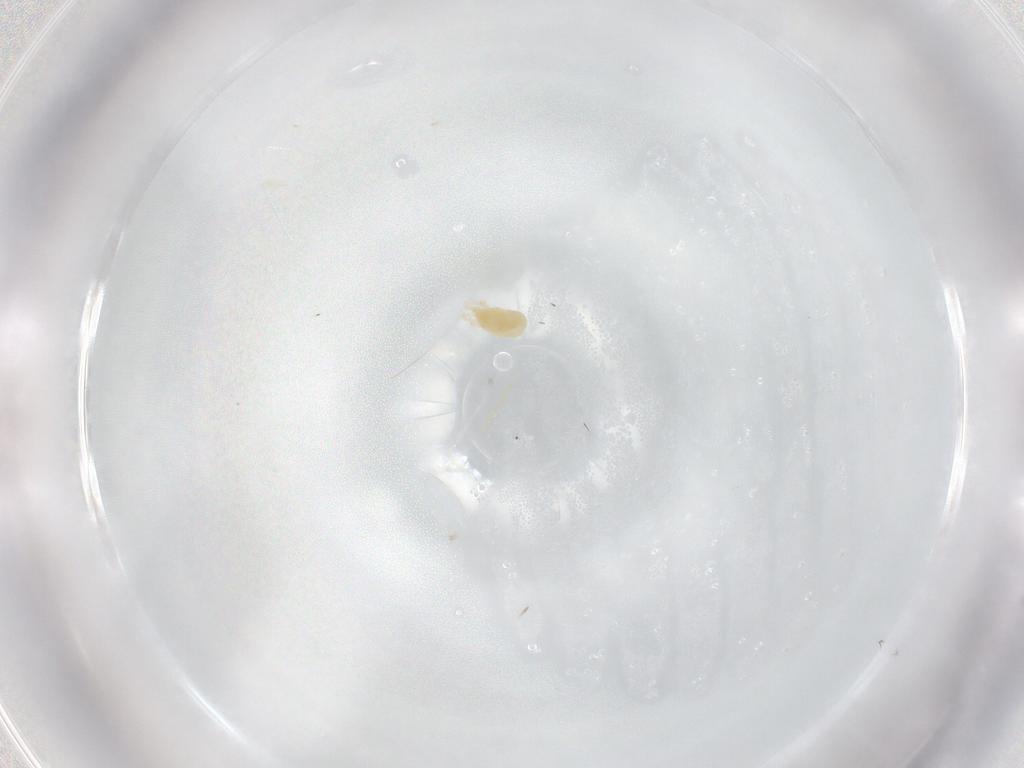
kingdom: Animalia
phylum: Arthropoda
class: Arachnida
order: Trombidiformes
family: Tetranychidae
